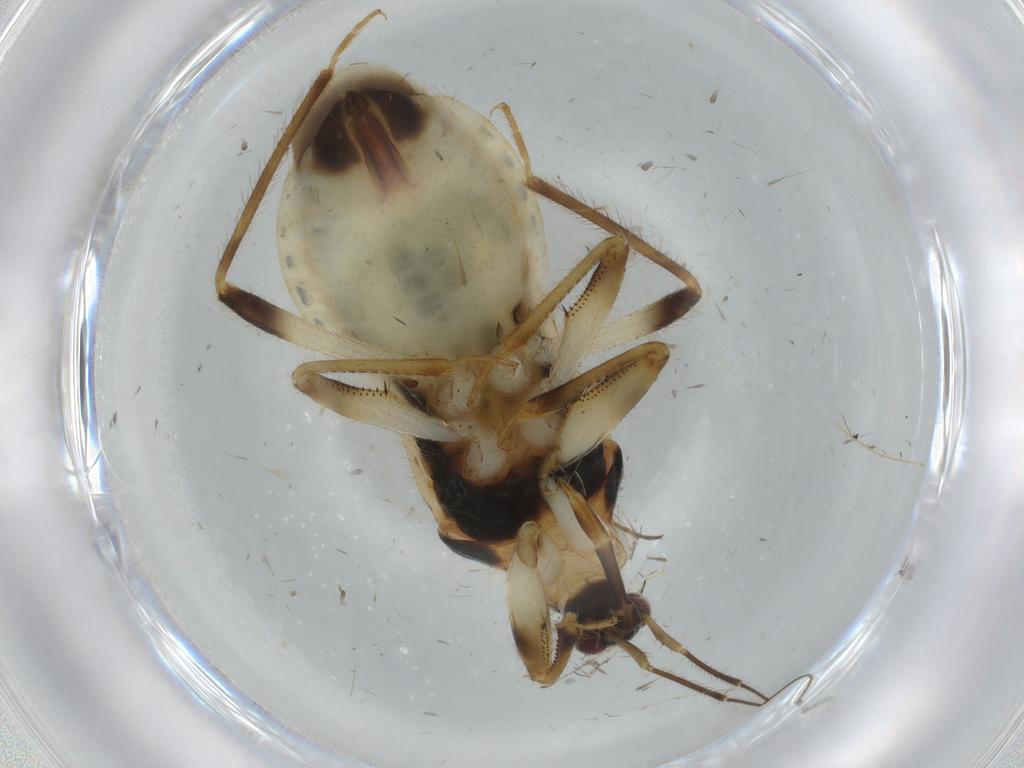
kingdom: Animalia
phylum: Arthropoda
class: Insecta
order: Hemiptera
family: Nabidae
